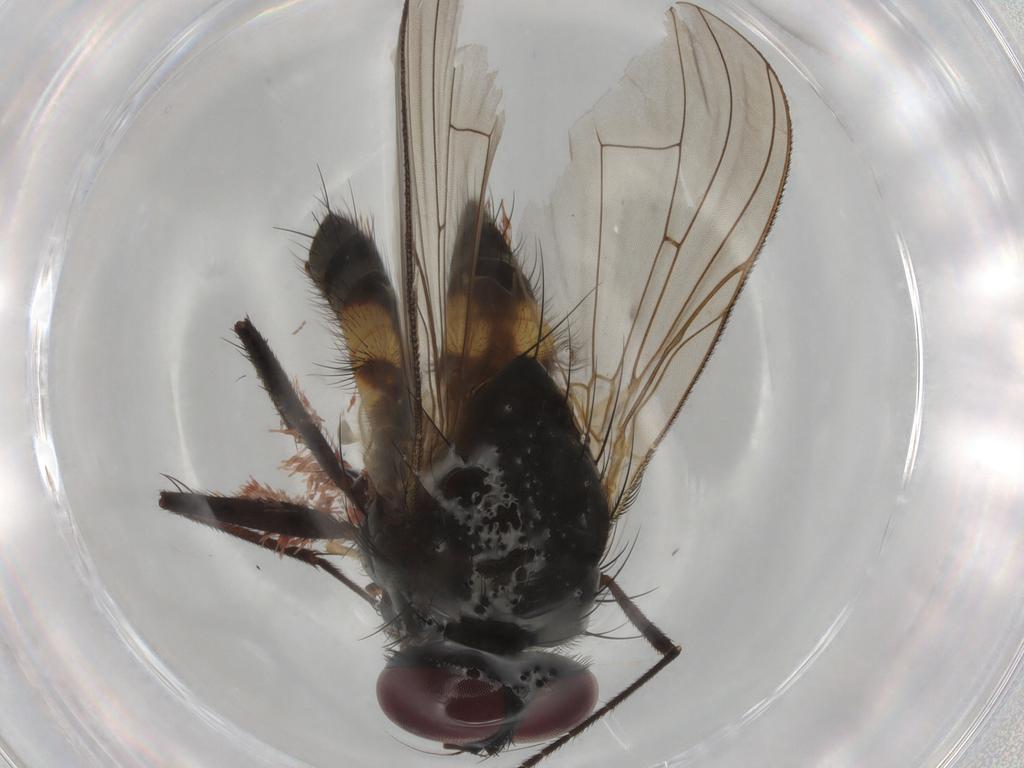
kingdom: Animalia
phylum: Arthropoda
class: Insecta
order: Diptera
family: Muscidae
